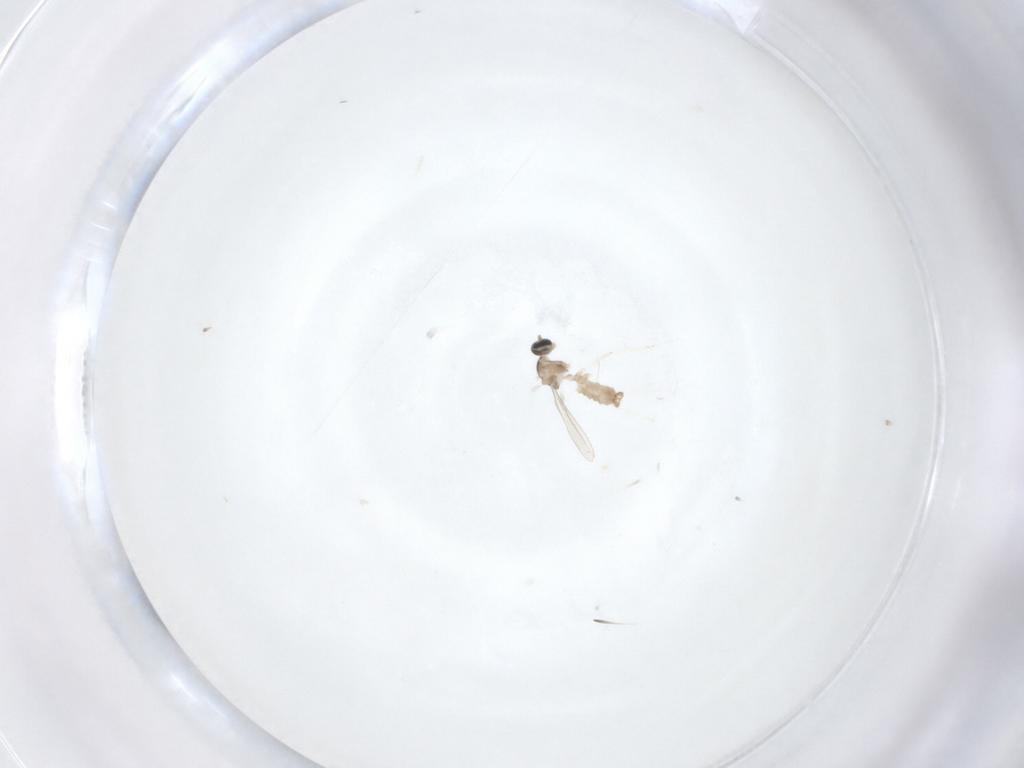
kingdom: Animalia
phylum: Arthropoda
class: Insecta
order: Diptera
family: Cecidomyiidae
